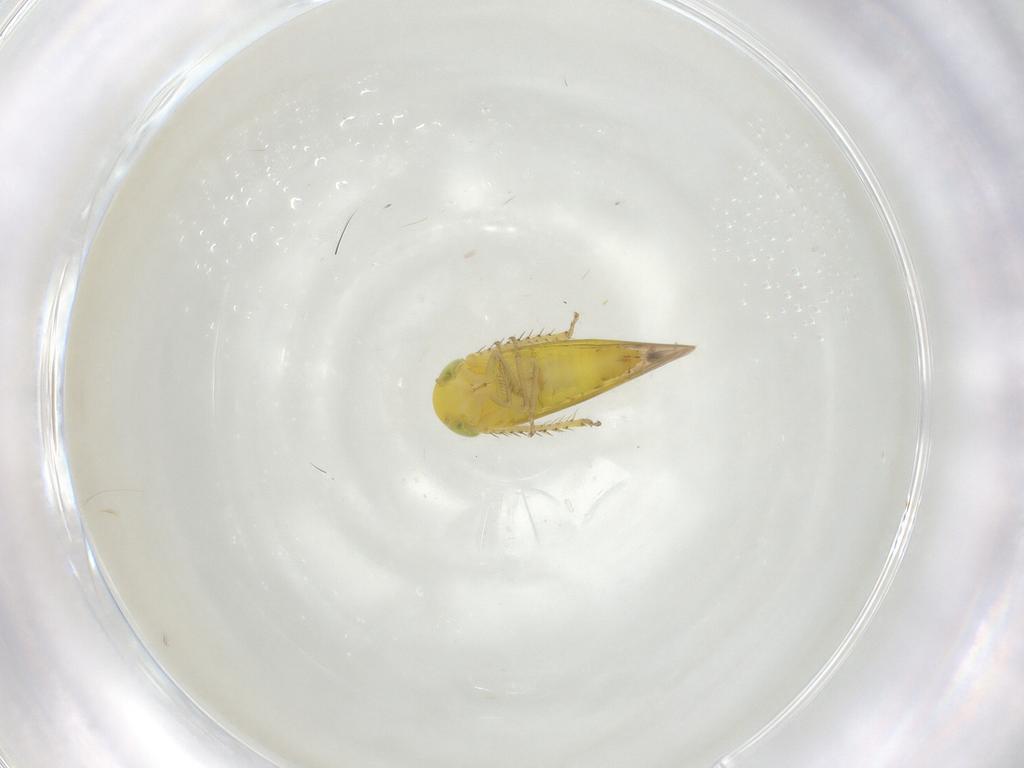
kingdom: Animalia
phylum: Arthropoda
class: Insecta
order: Hemiptera
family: Cicadellidae
